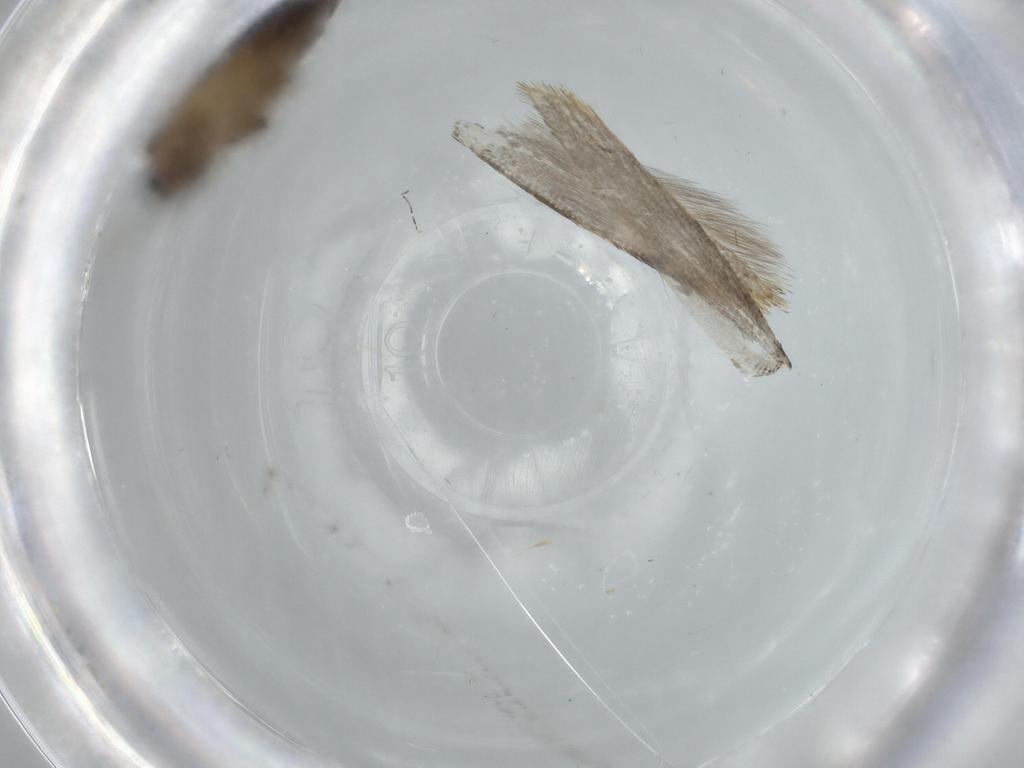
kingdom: Animalia
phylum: Arthropoda
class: Insecta
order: Lepidoptera
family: Tineidae
